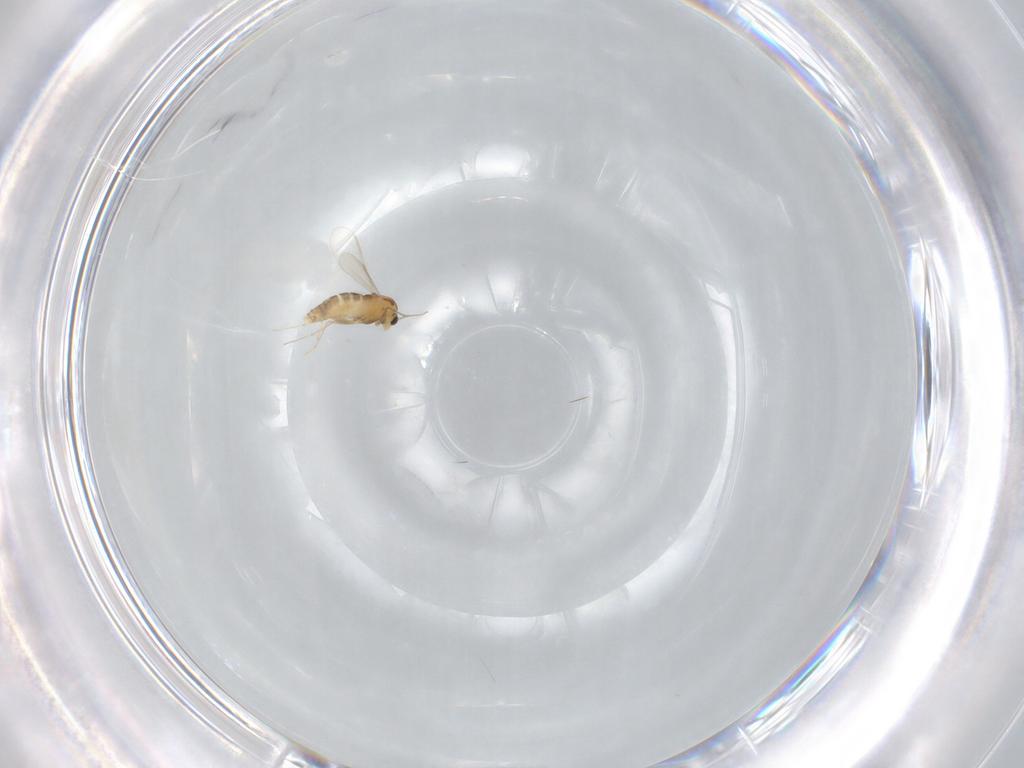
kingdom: Animalia
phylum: Arthropoda
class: Insecta
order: Diptera
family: Chironomidae
